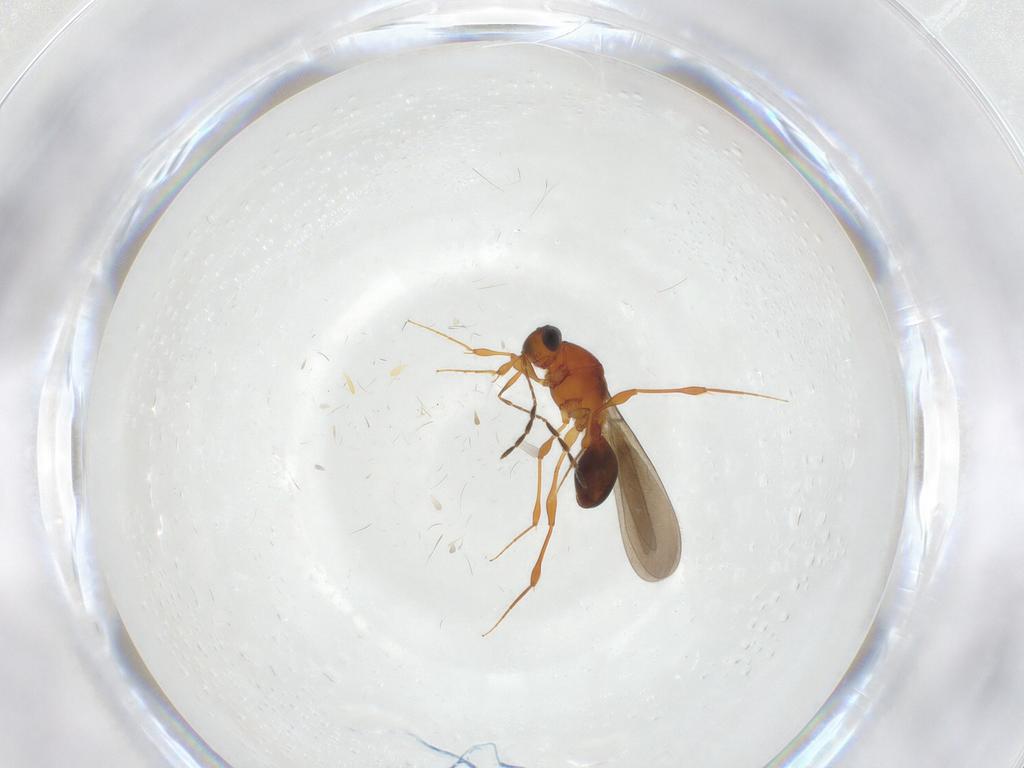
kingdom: Animalia
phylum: Arthropoda
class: Insecta
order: Hymenoptera
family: Platygastridae
